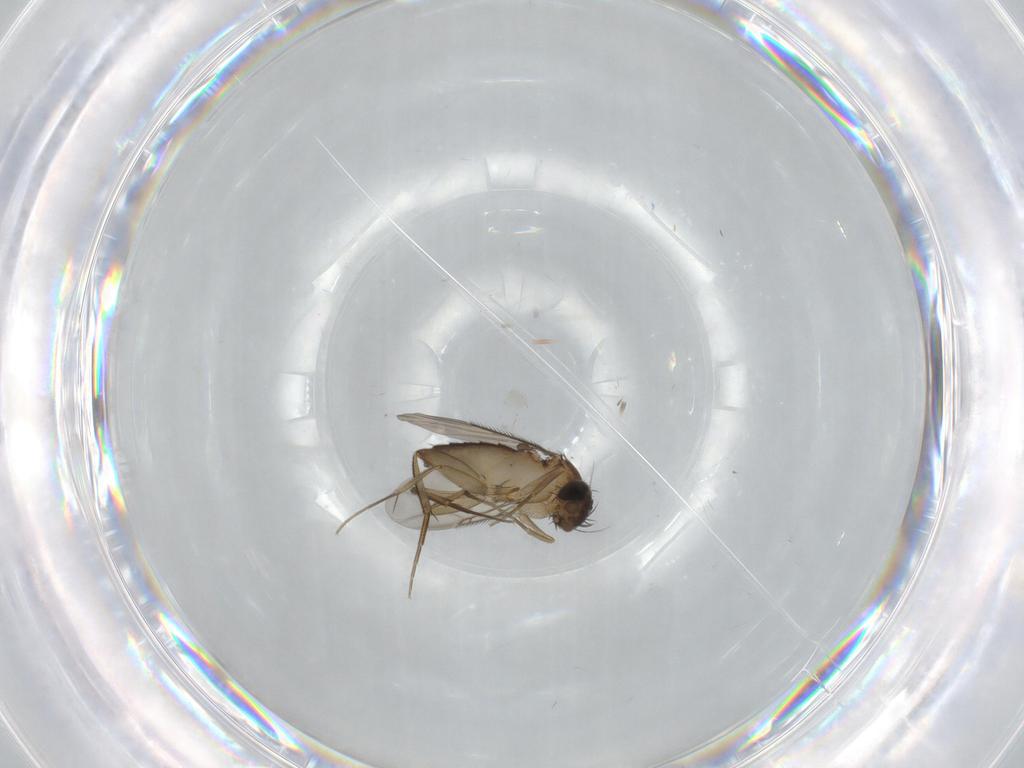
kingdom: Animalia
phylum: Arthropoda
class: Insecta
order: Diptera
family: Phoridae
